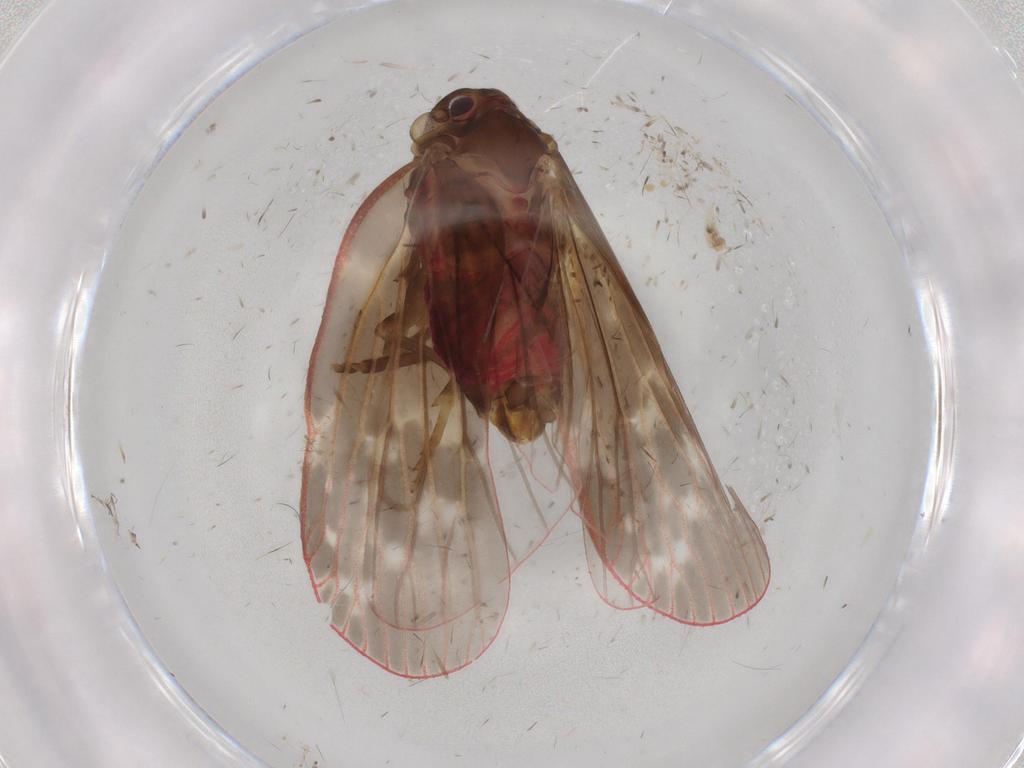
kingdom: Animalia
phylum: Arthropoda
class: Insecta
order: Hemiptera
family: Achilidae
